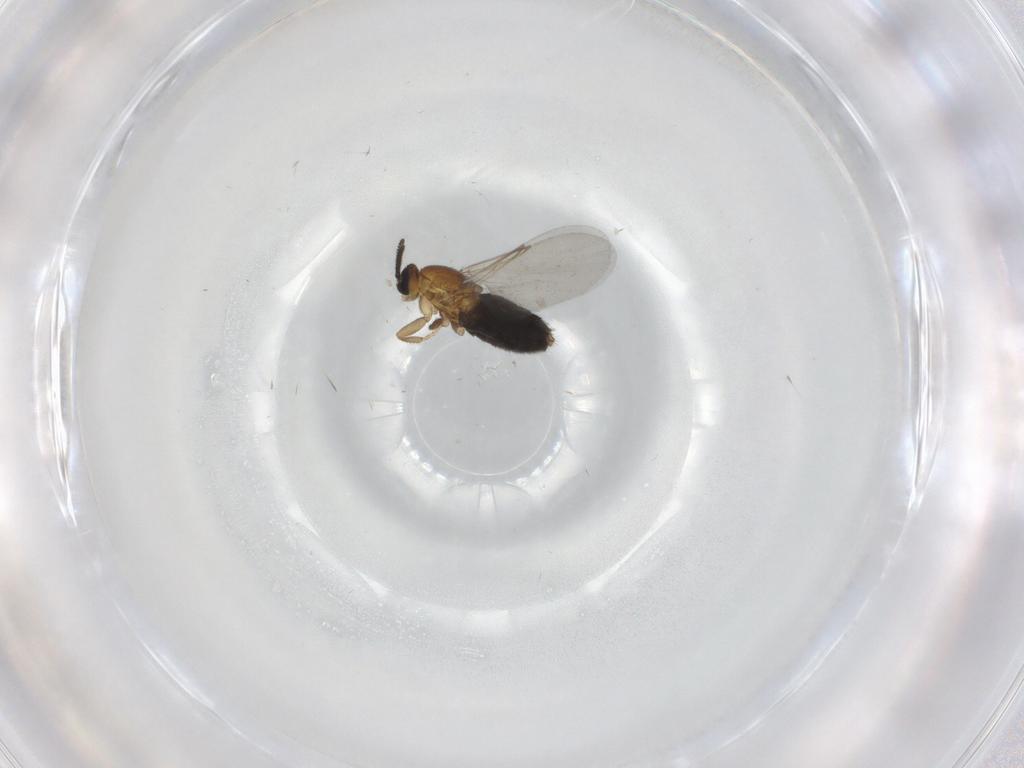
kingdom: Animalia
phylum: Arthropoda
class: Insecta
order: Diptera
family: Scatopsidae
